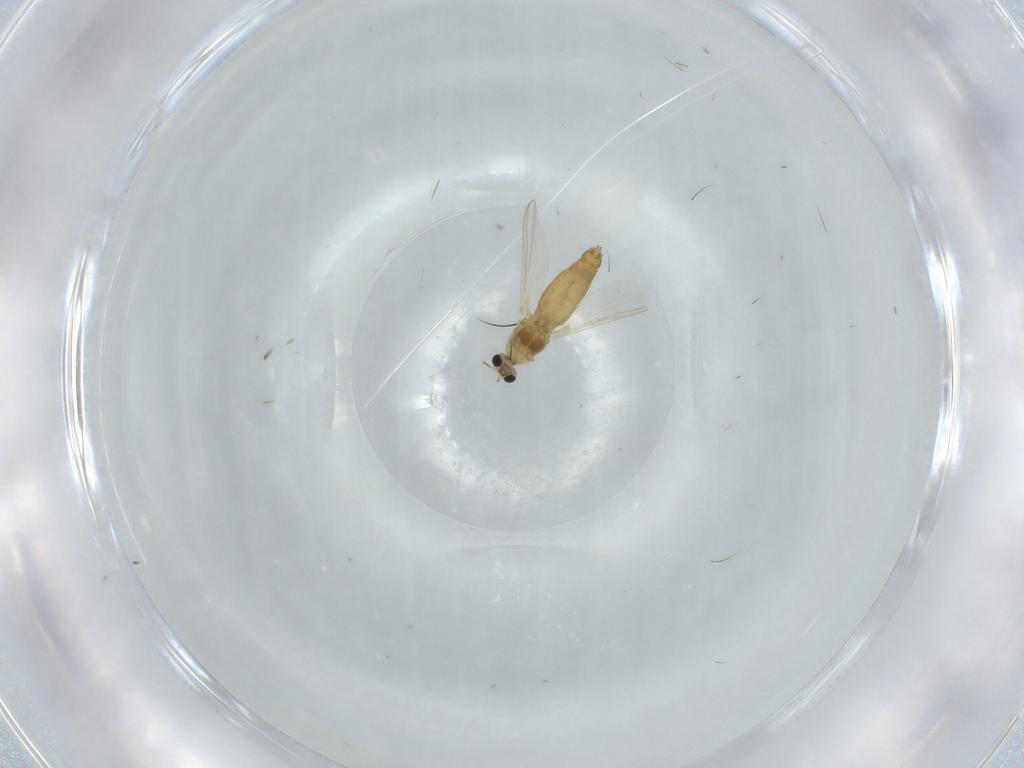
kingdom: Animalia
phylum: Arthropoda
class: Insecta
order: Diptera
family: Chironomidae
